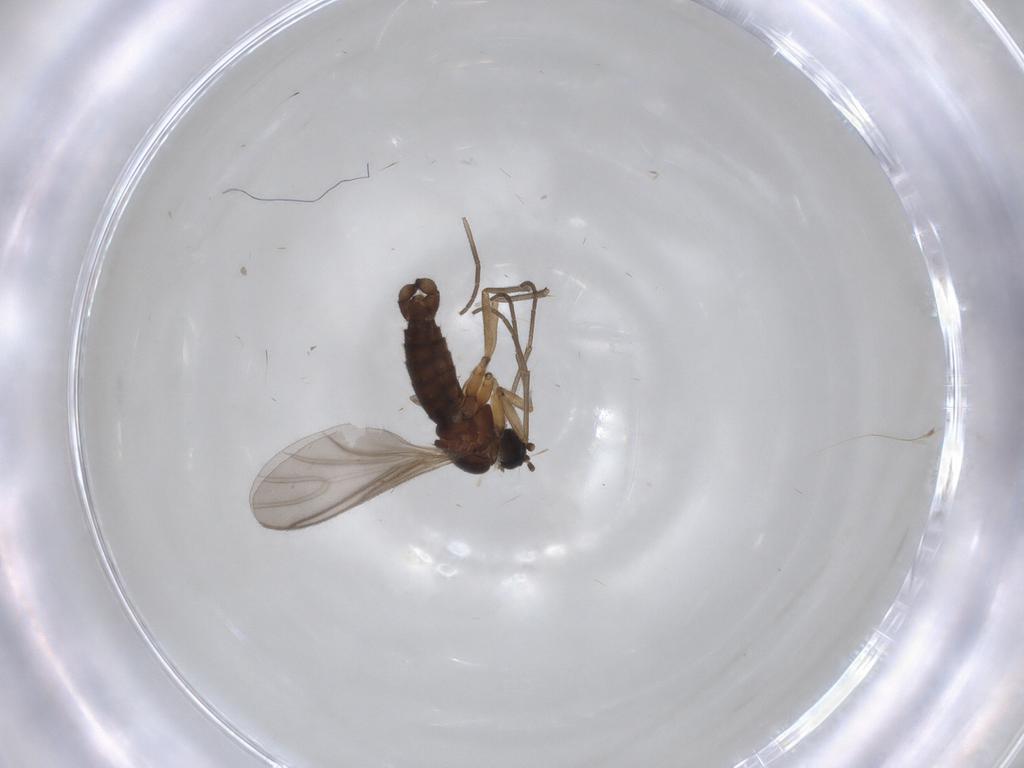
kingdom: Animalia
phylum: Arthropoda
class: Insecta
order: Diptera
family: Sciaridae
